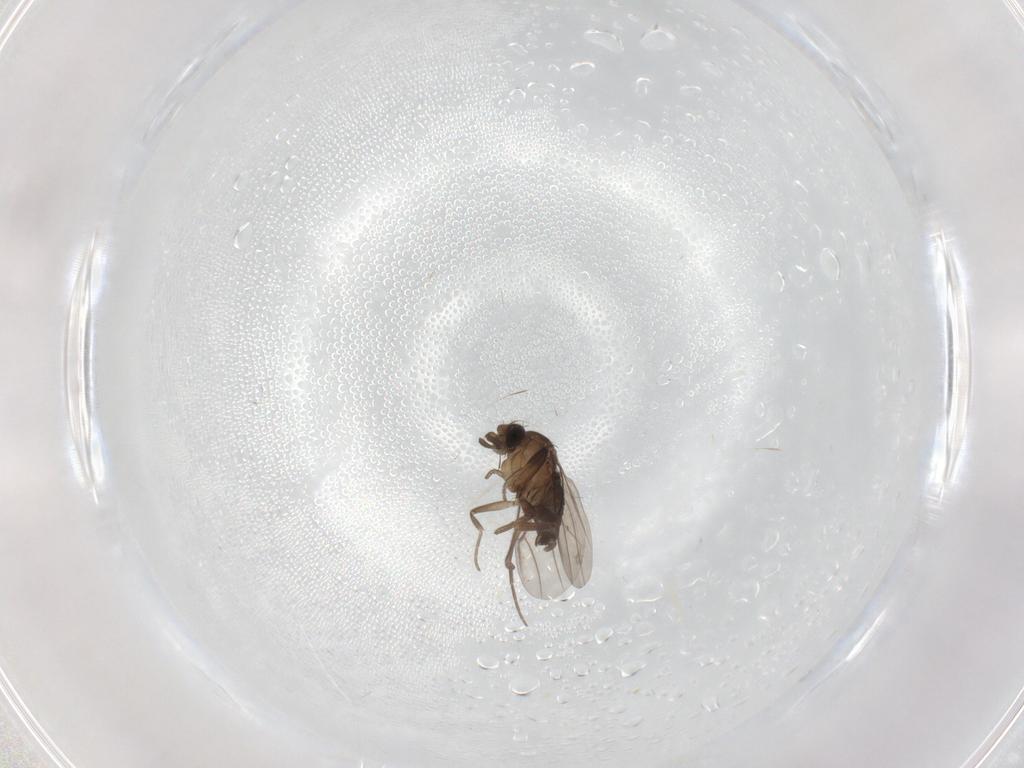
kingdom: Animalia
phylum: Arthropoda
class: Insecta
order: Diptera
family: Phoridae
